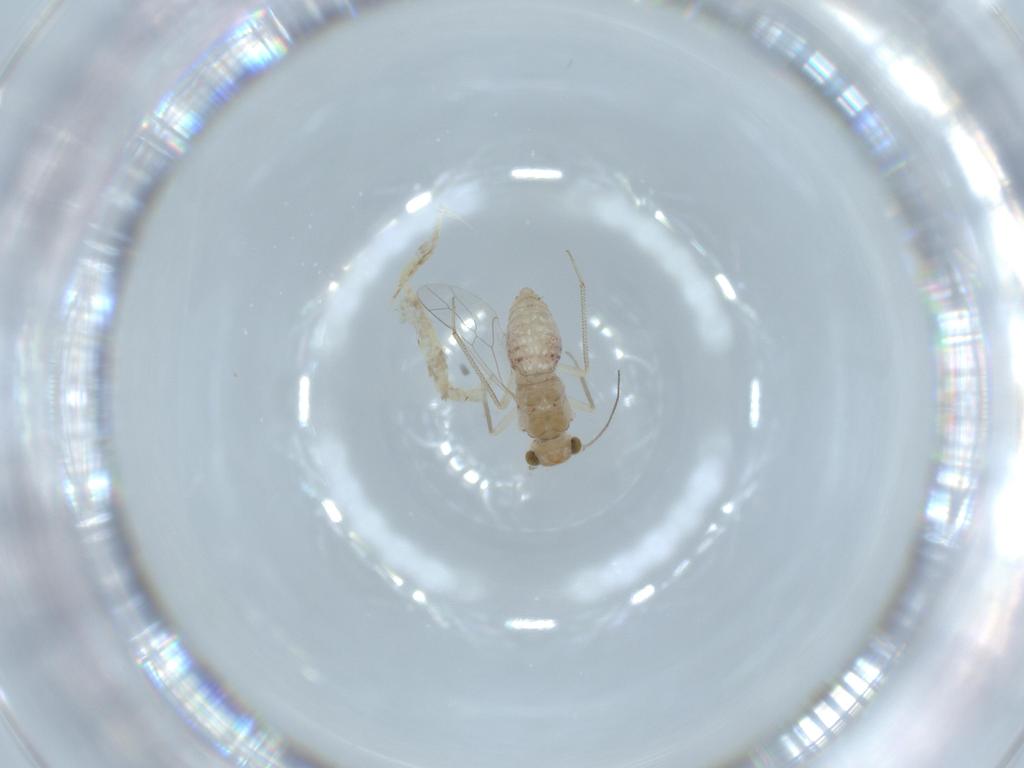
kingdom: Animalia
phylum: Arthropoda
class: Insecta
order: Psocodea
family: Lachesillidae
